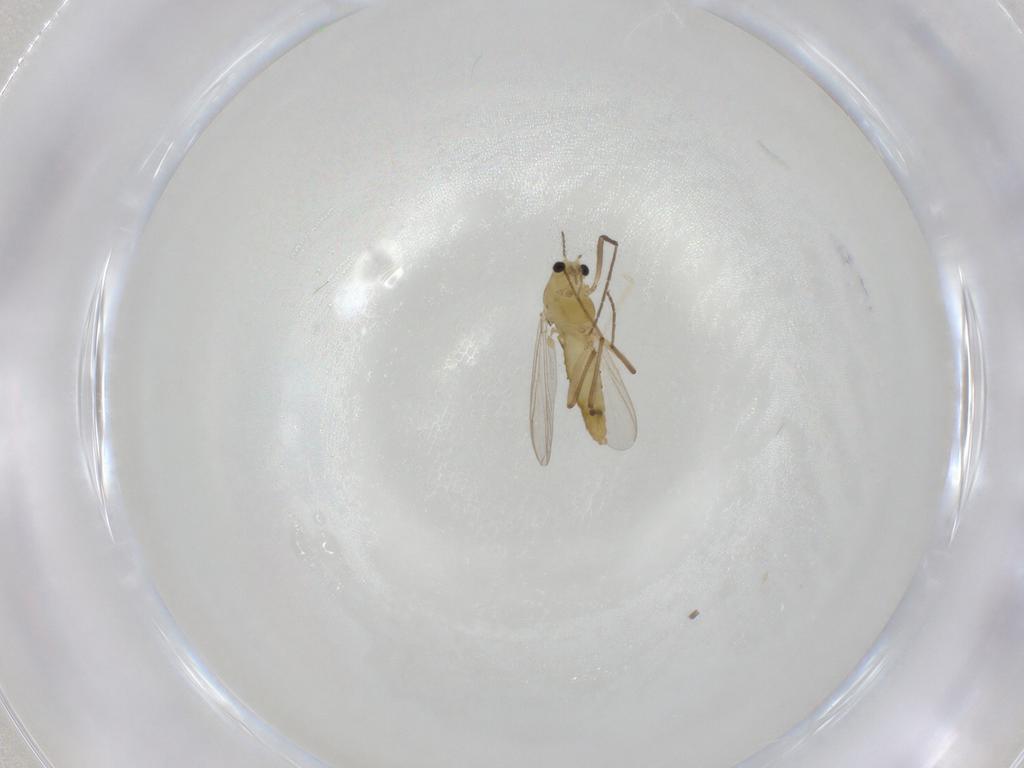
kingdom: Animalia
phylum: Arthropoda
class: Insecta
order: Diptera
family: Chironomidae
